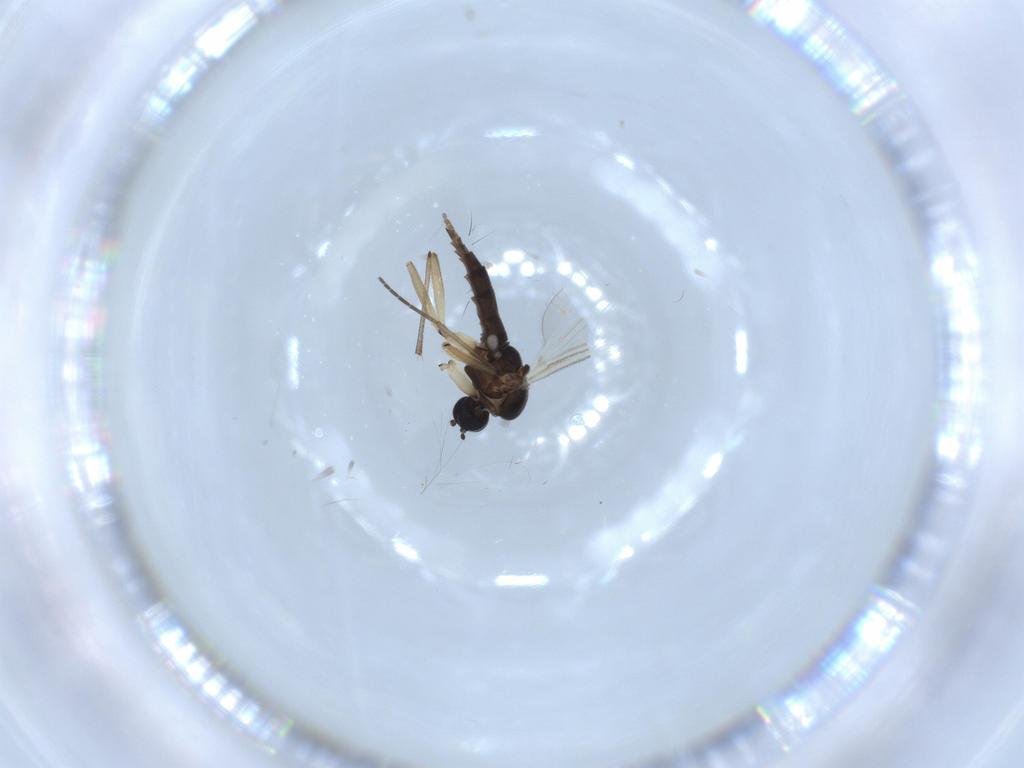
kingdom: Animalia
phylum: Arthropoda
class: Insecta
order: Diptera
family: Sciaridae
